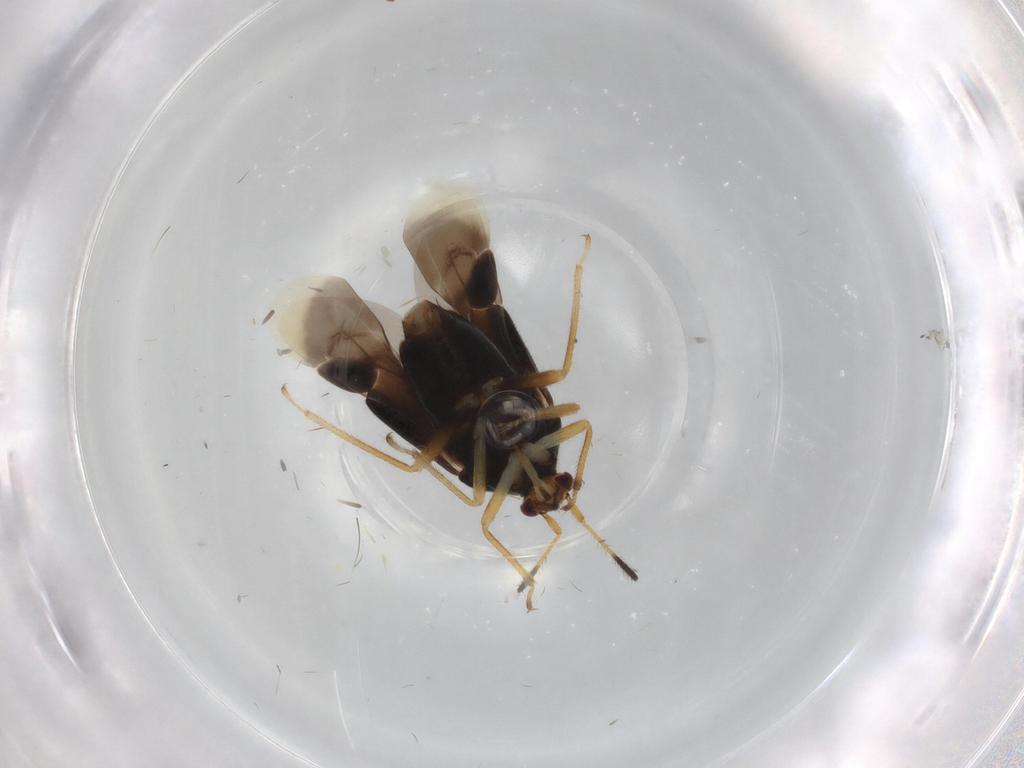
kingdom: Animalia
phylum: Arthropoda
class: Insecta
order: Hemiptera
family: Miridae
